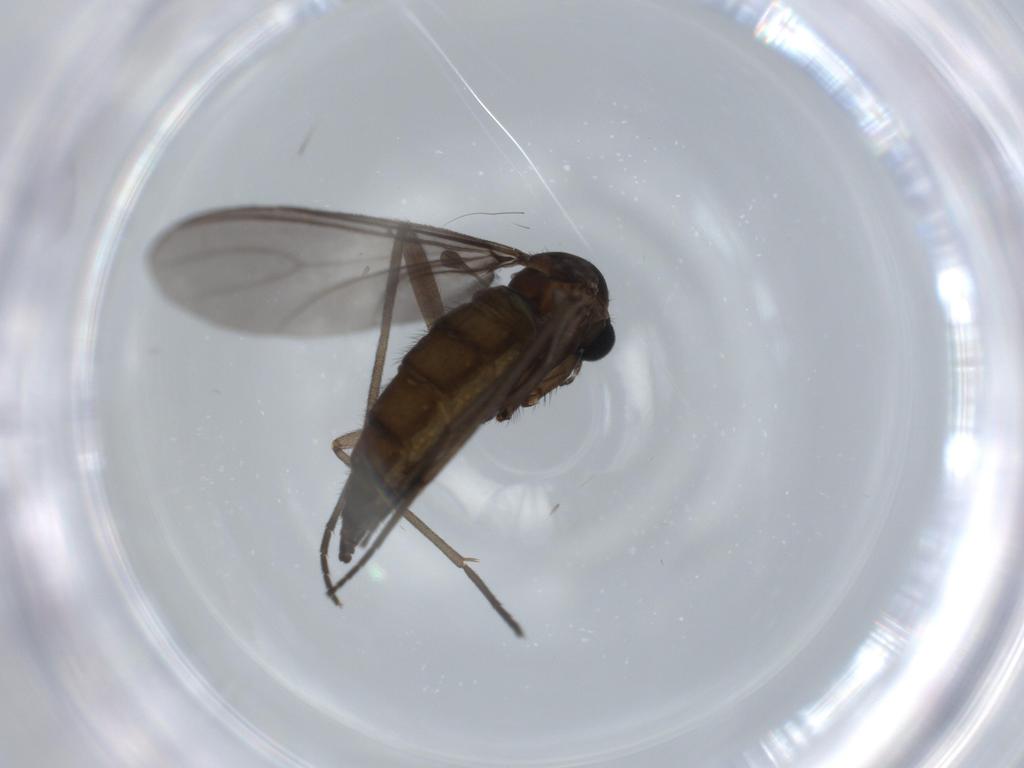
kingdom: Animalia
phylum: Arthropoda
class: Insecta
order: Diptera
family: Sciaridae
